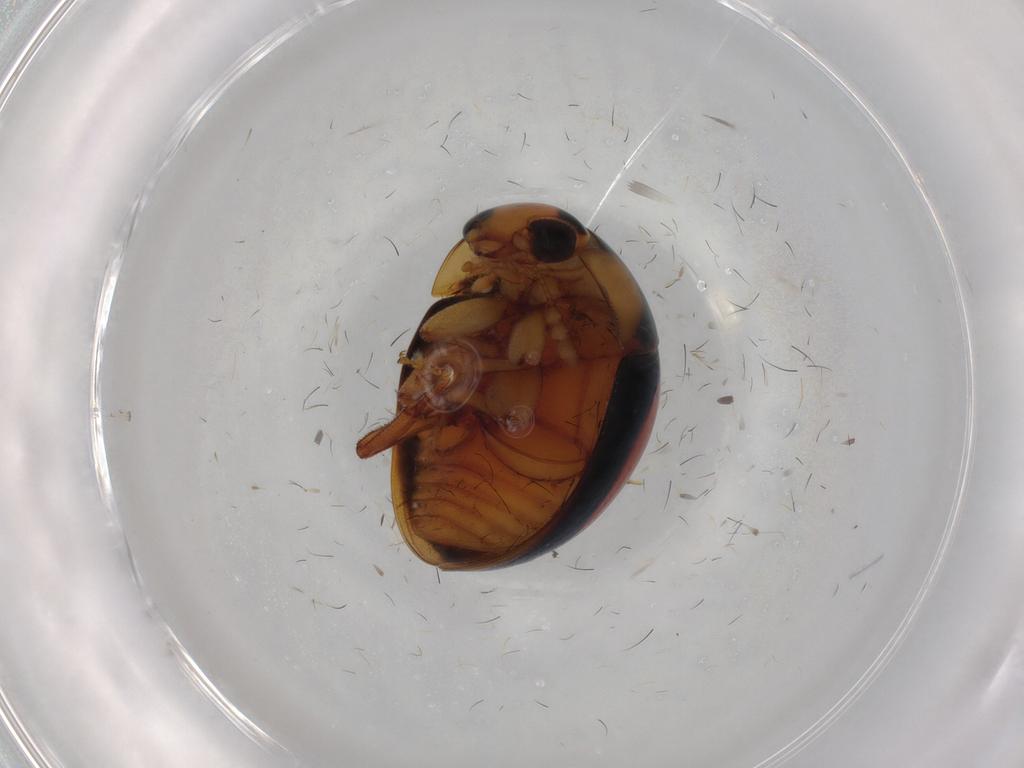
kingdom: Animalia
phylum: Arthropoda
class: Insecta
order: Coleoptera
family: Phalacridae
